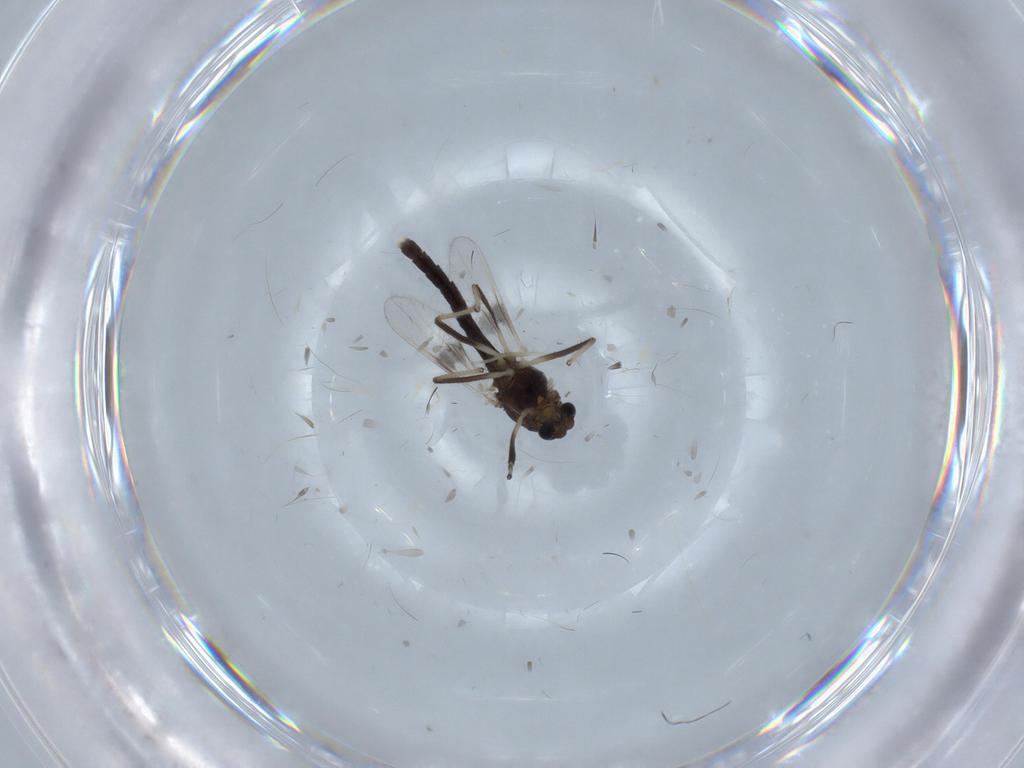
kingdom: Animalia
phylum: Arthropoda
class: Insecta
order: Diptera
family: Chironomidae
